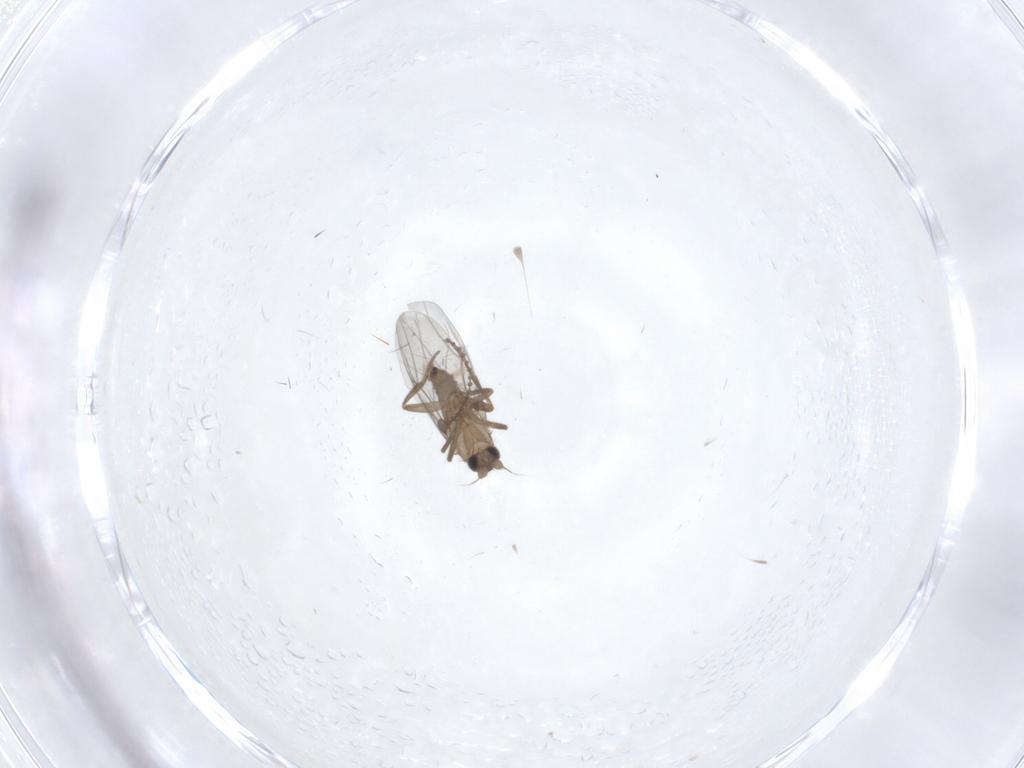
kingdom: Animalia
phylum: Arthropoda
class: Insecta
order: Diptera
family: Cecidomyiidae
